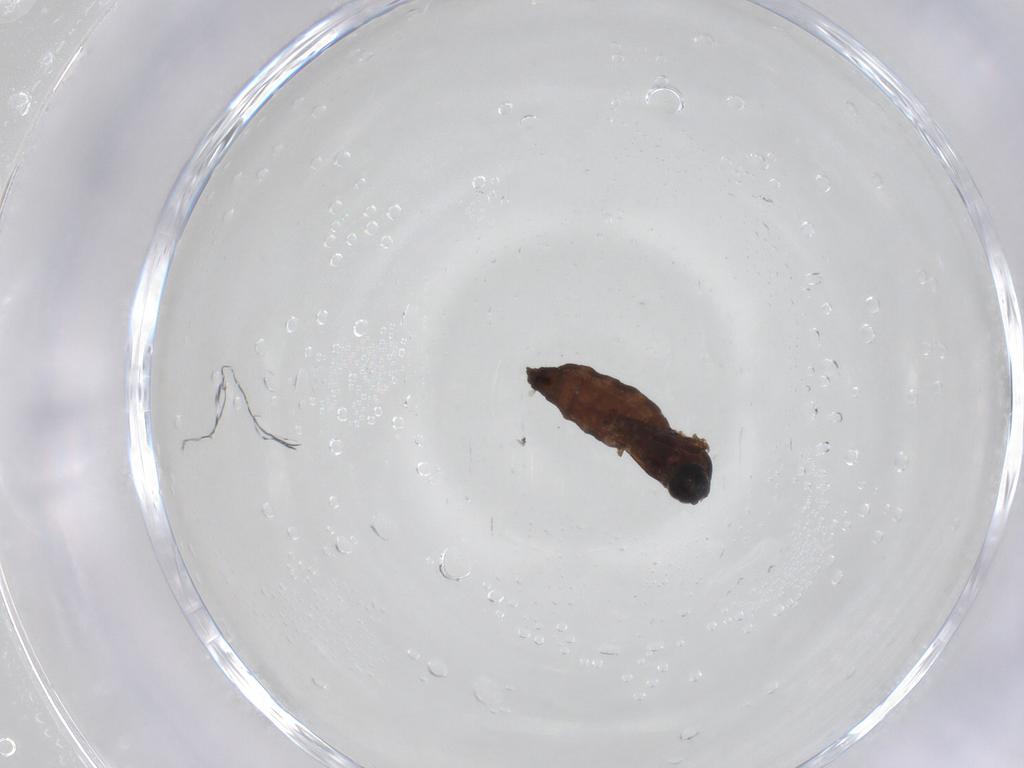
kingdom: Animalia
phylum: Arthropoda
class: Insecta
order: Diptera
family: Sciaridae
